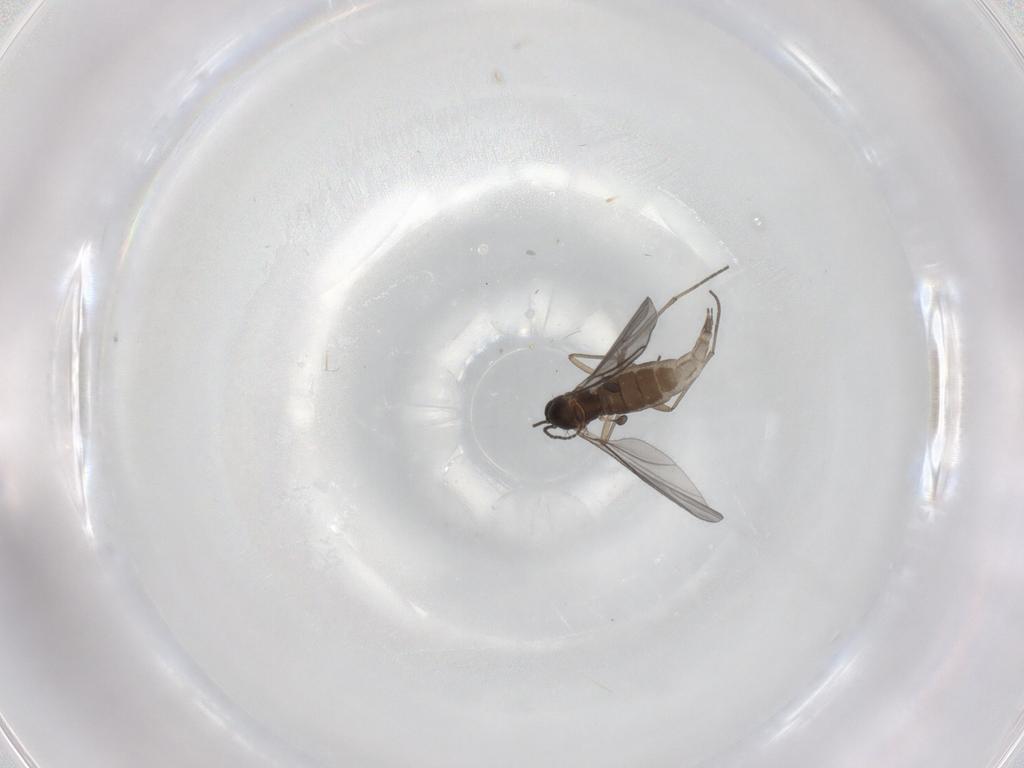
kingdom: Animalia
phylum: Arthropoda
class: Insecta
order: Diptera
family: Sciaridae
